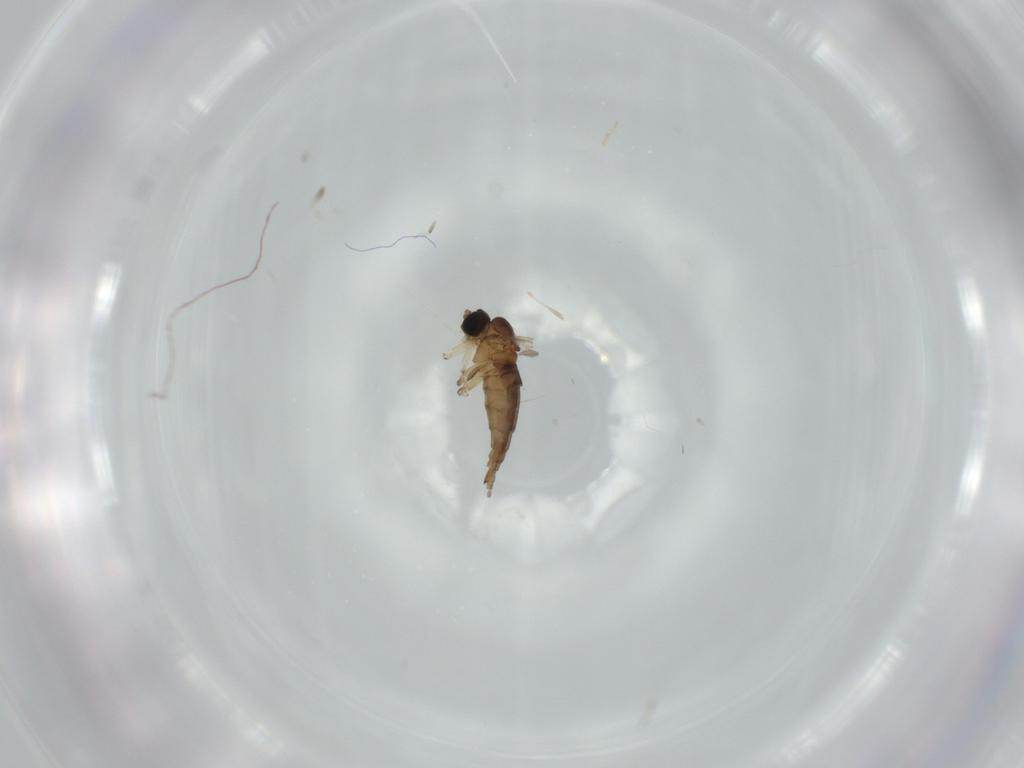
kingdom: Animalia
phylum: Arthropoda
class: Insecta
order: Diptera
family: Sciaridae
